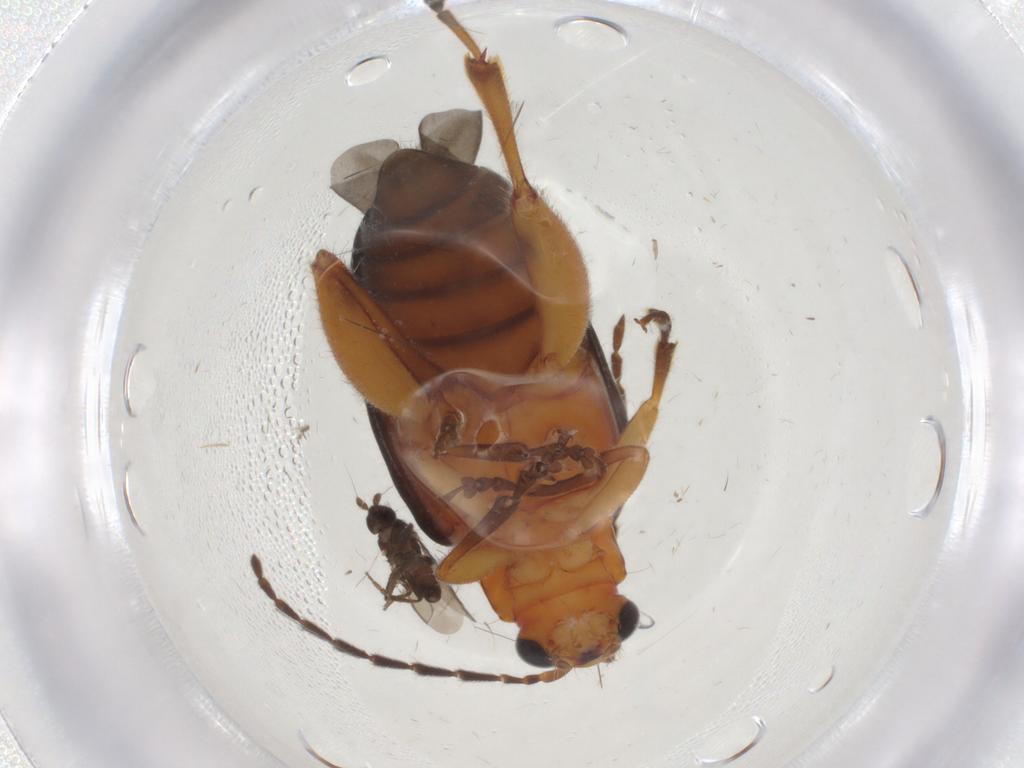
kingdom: Animalia
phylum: Arthropoda
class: Insecta
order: Coleoptera
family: Chrysomelidae
